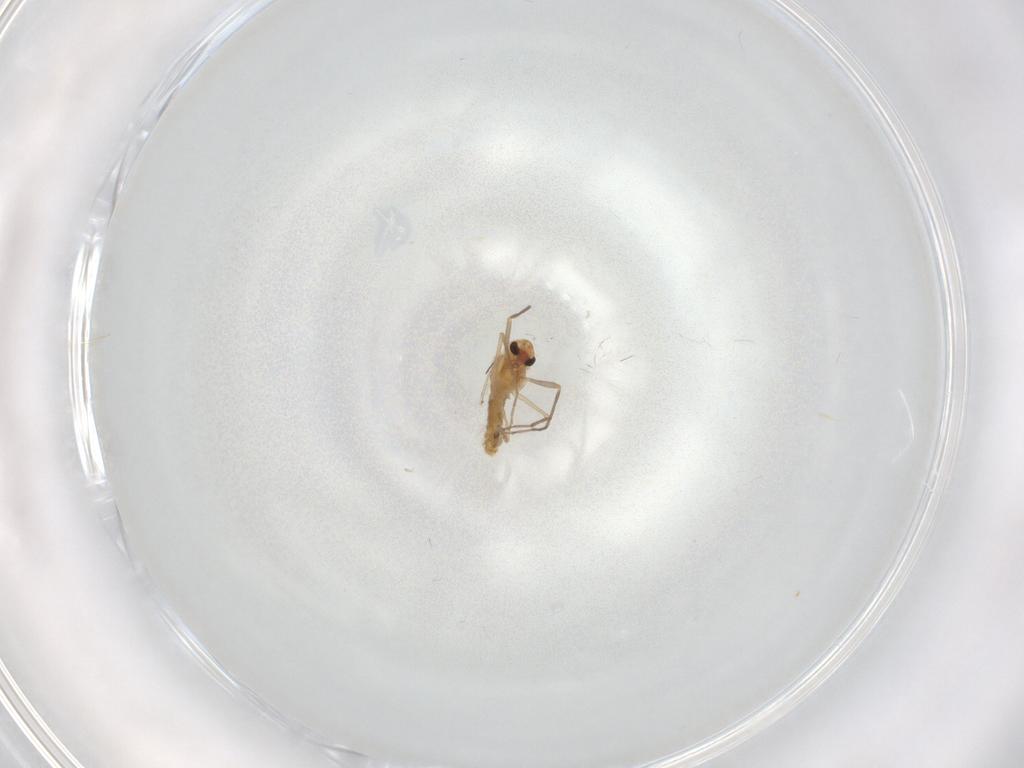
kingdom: Animalia
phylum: Arthropoda
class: Insecta
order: Diptera
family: Chironomidae
